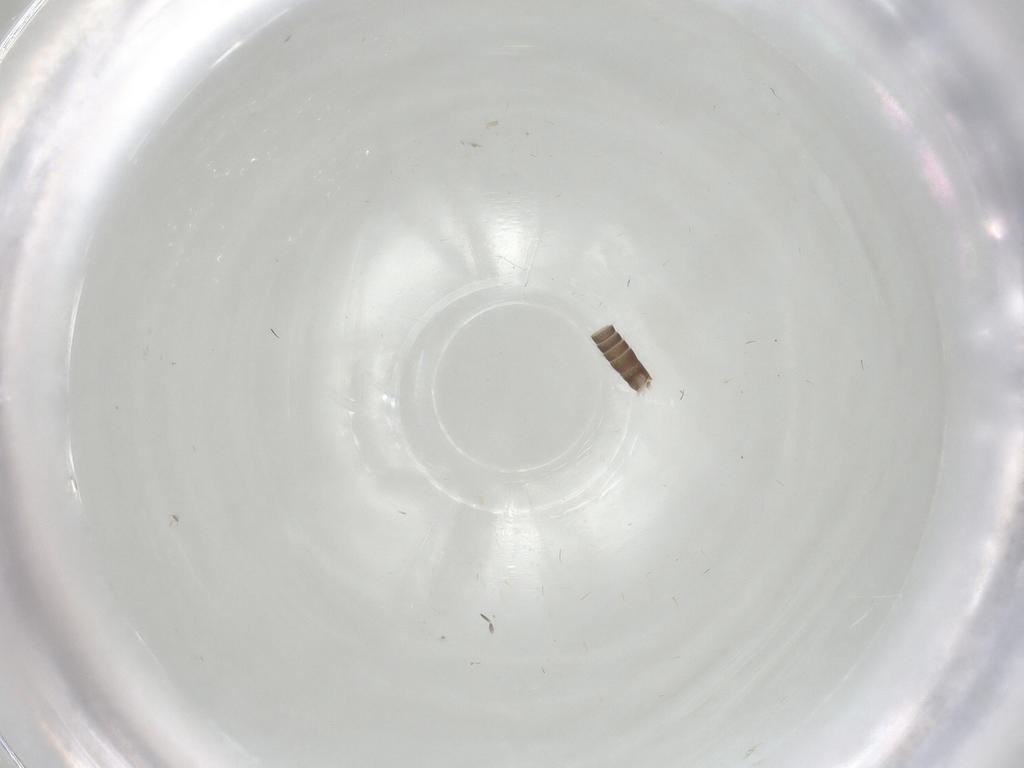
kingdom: Animalia
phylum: Arthropoda
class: Insecta
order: Orthoptera
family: Gryllidae
